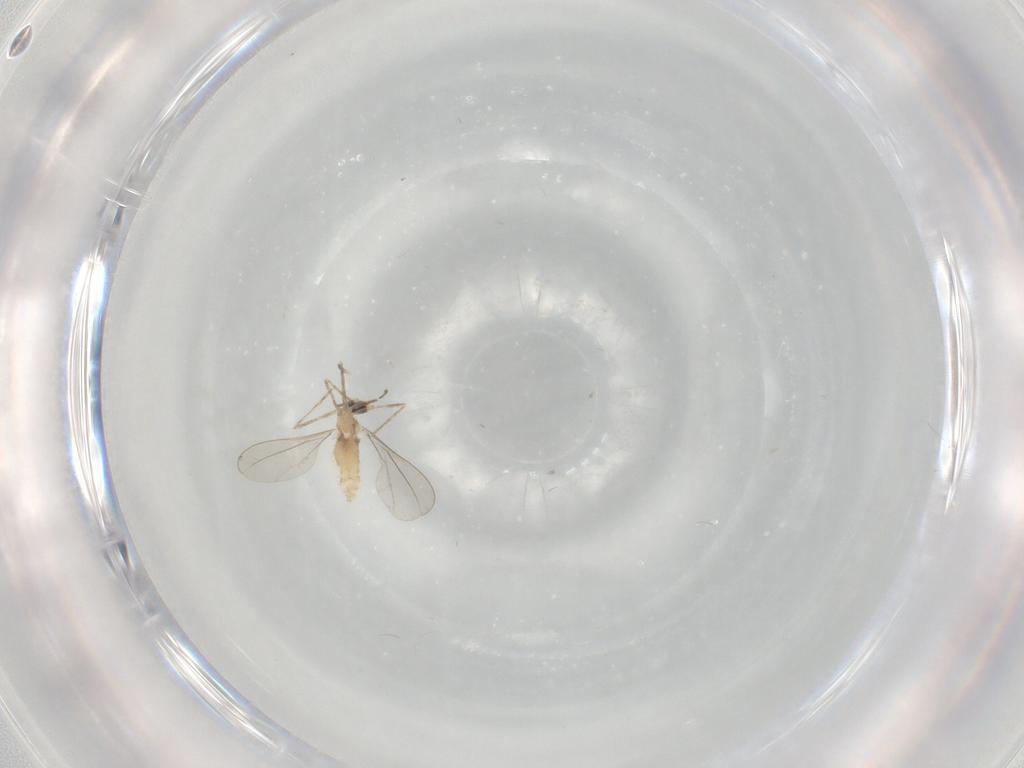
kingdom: Animalia
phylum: Arthropoda
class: Insecta
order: Diptera
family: Cecidomyiidae
